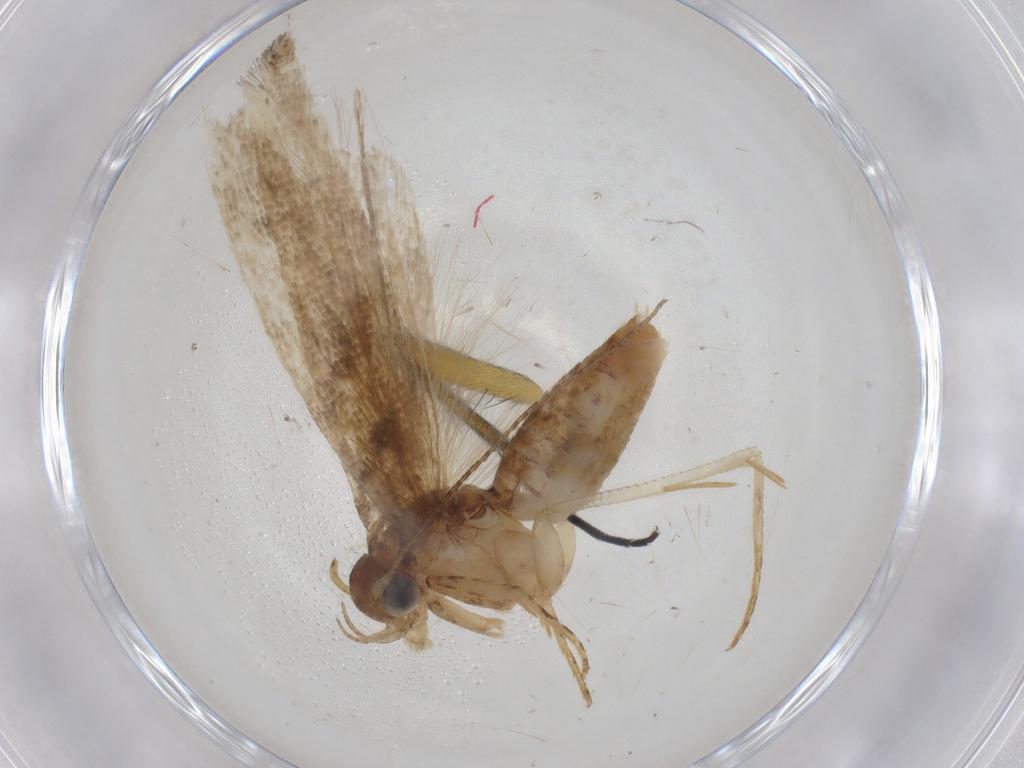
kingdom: Animalia
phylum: Arthropoda
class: Insecta
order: Lepidoptera
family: Gelechiidae
